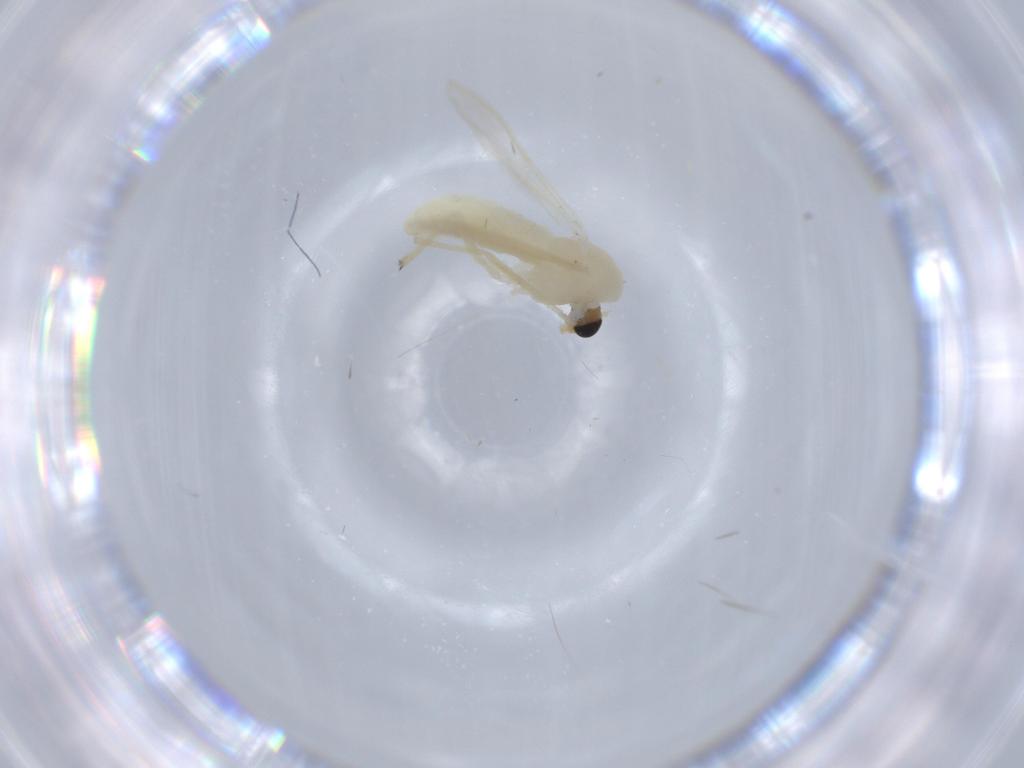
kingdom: Animalia
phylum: Arthropoda
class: Insecta
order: Diptera
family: Chironomidae
